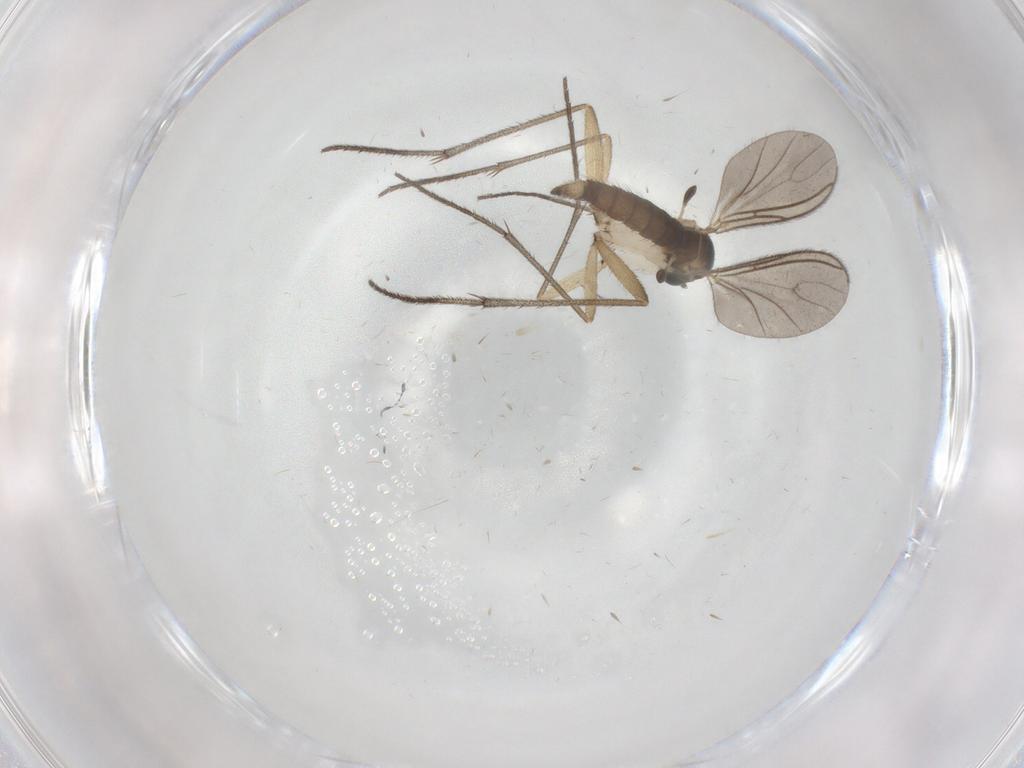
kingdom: Animalia
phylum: Arthropoda
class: Insecta
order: Diptera
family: Sciaridae
